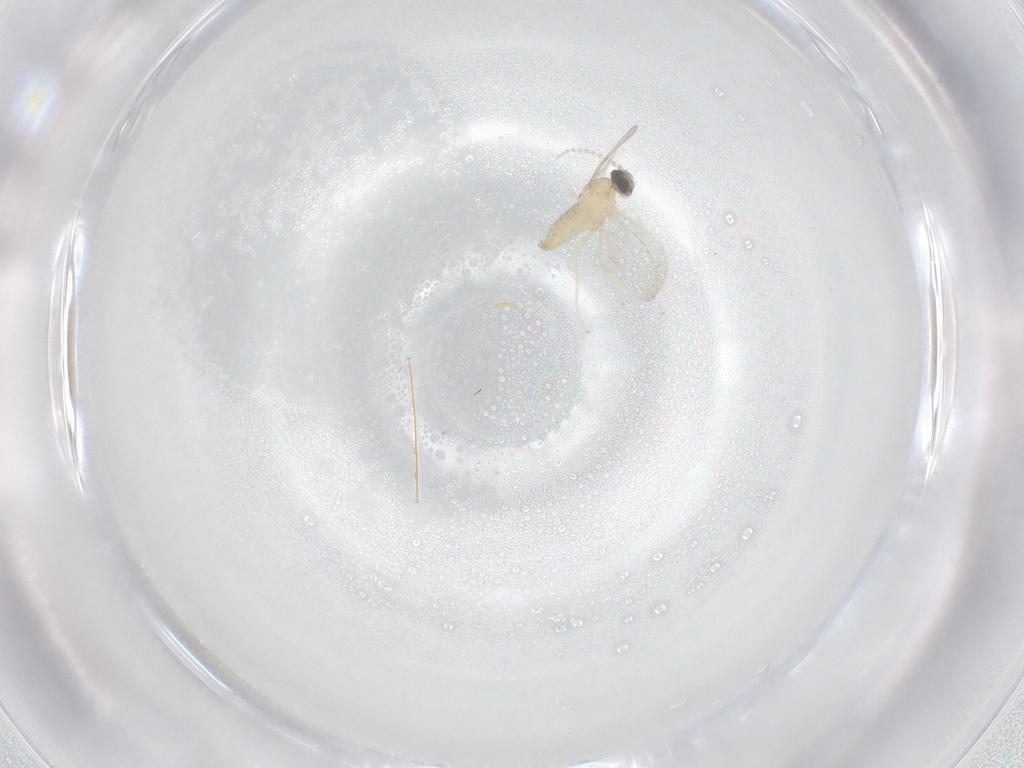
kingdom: Animalia
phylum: Arthropoda
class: Insecta
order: Diptera
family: Cecidomyiidae
